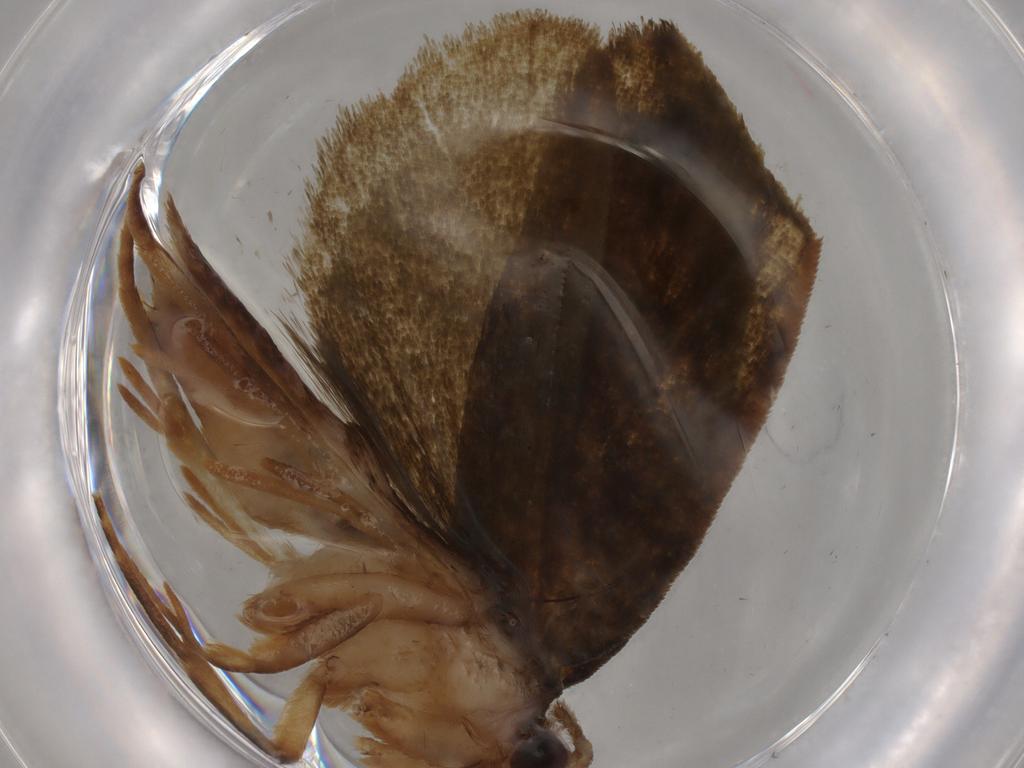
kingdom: Animalia
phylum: Arthropoda
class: Insecta
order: Lepidoptera
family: Geometridae
